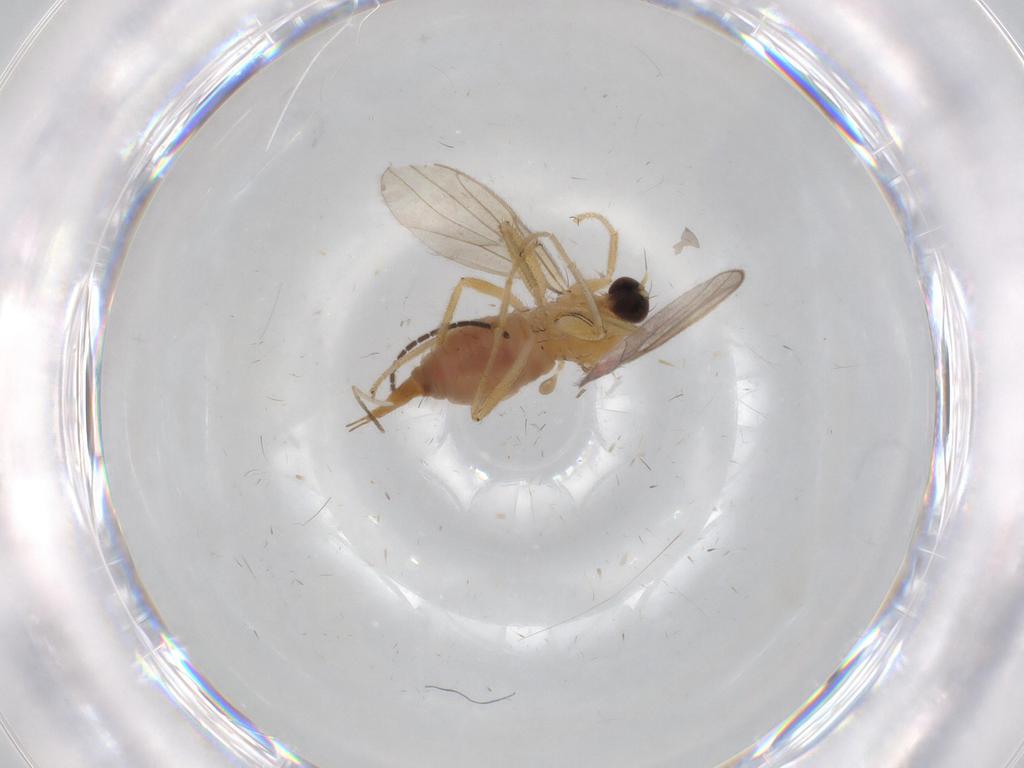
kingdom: Animalia
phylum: Arthropoda
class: Insecta
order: Diptera
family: Hybotidae
